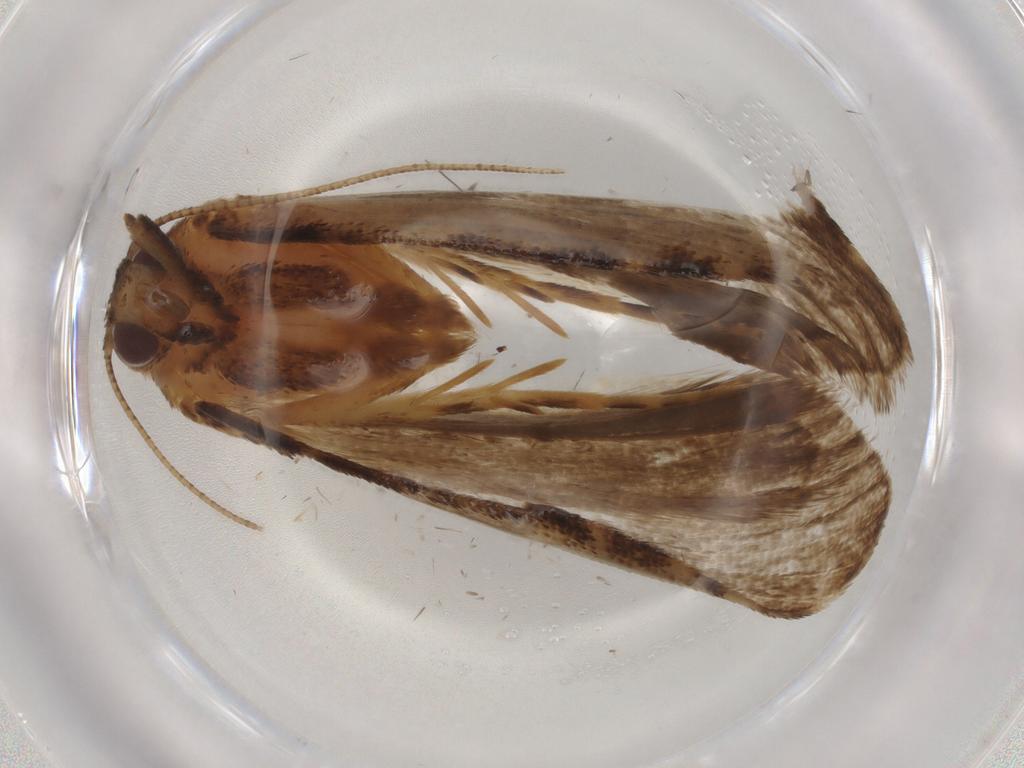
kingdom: Animalia
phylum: Arthropoda
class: Insecta
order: Lepidoptera
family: Erebidae
